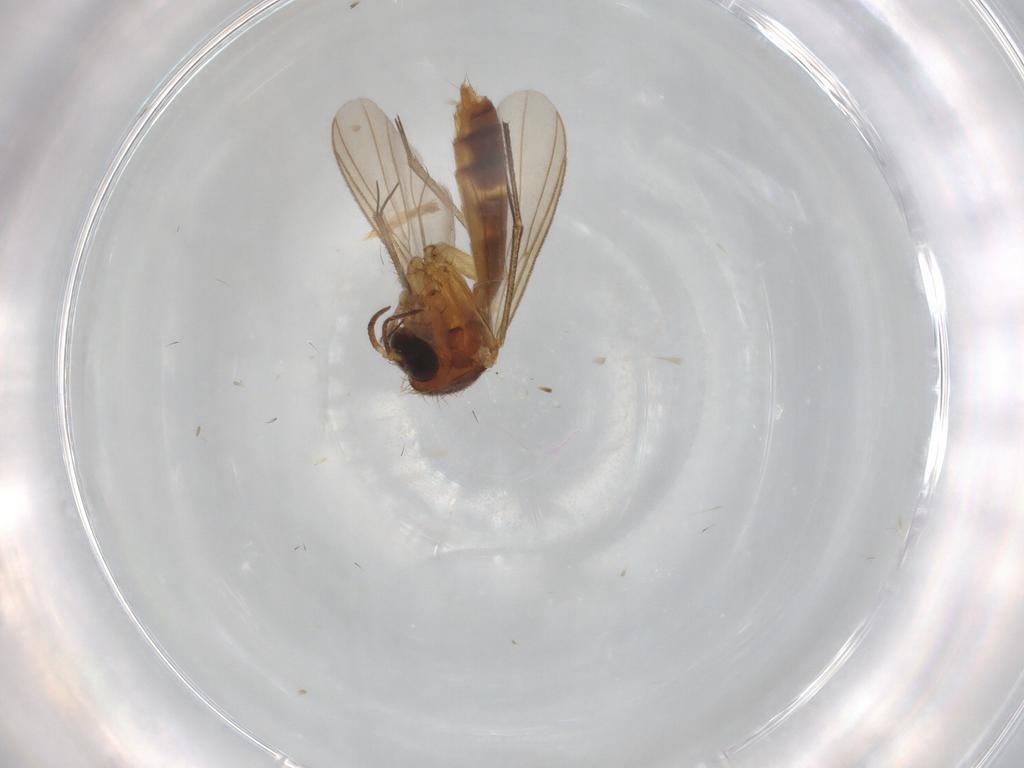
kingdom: Animalia
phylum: Arthropoda
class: Insecta
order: Diptera
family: Mycetophilidae
